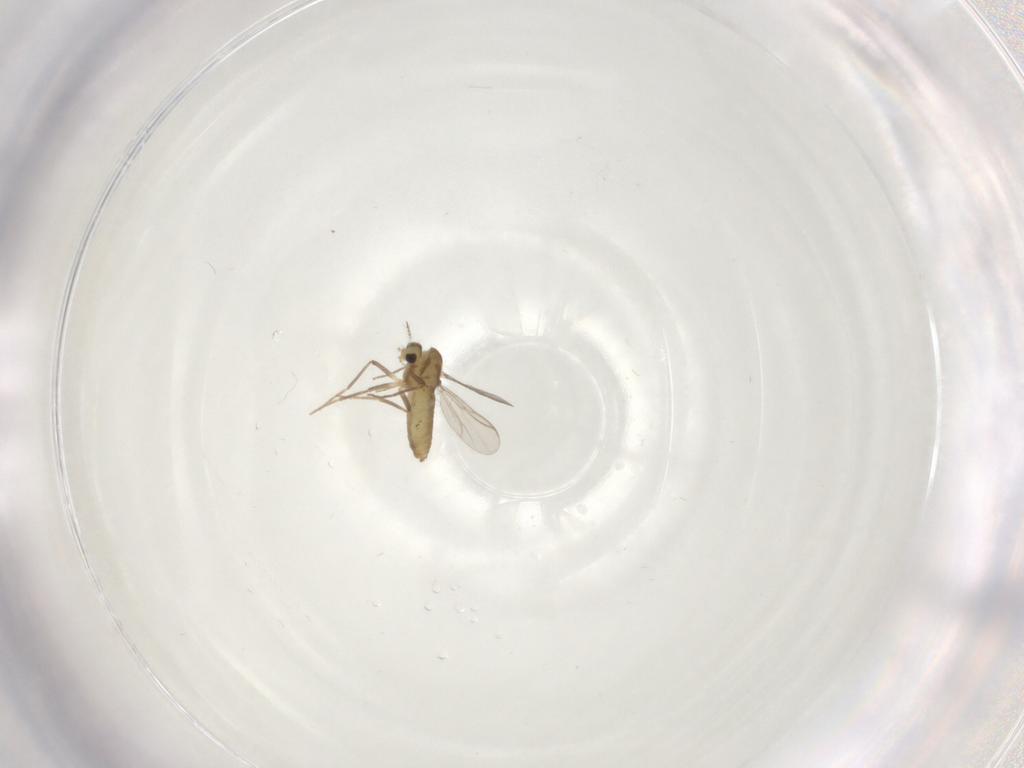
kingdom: Animalia
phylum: Arthropoda
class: Insecta
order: Diptera
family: Chironomidae
